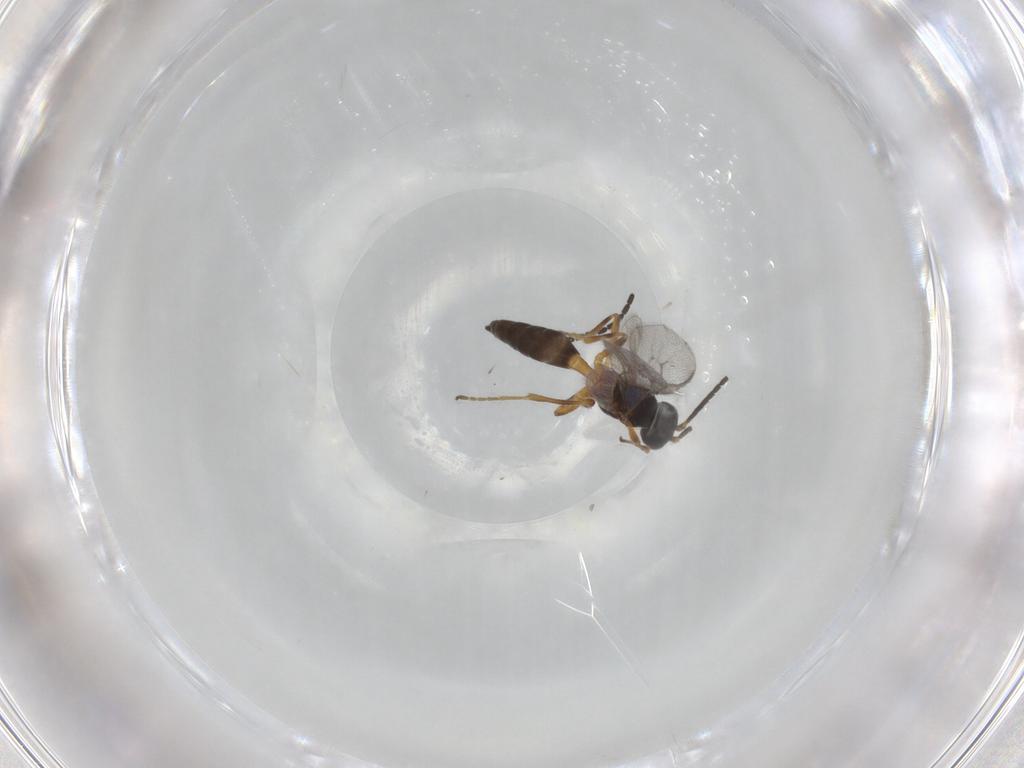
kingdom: Animalia
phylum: Arthropoda
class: Insecta
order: Hymenoptera
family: Braconidae
